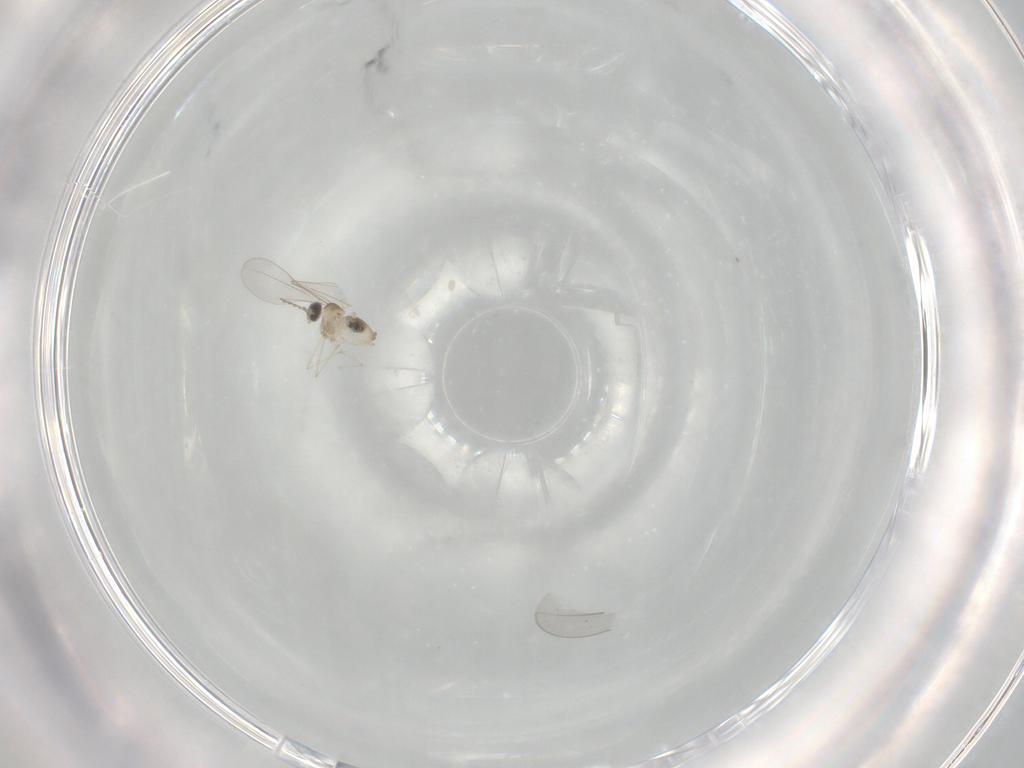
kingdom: Animalia
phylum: Arthropoda
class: Insecta
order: Diptera
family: Cecidomyiidae
